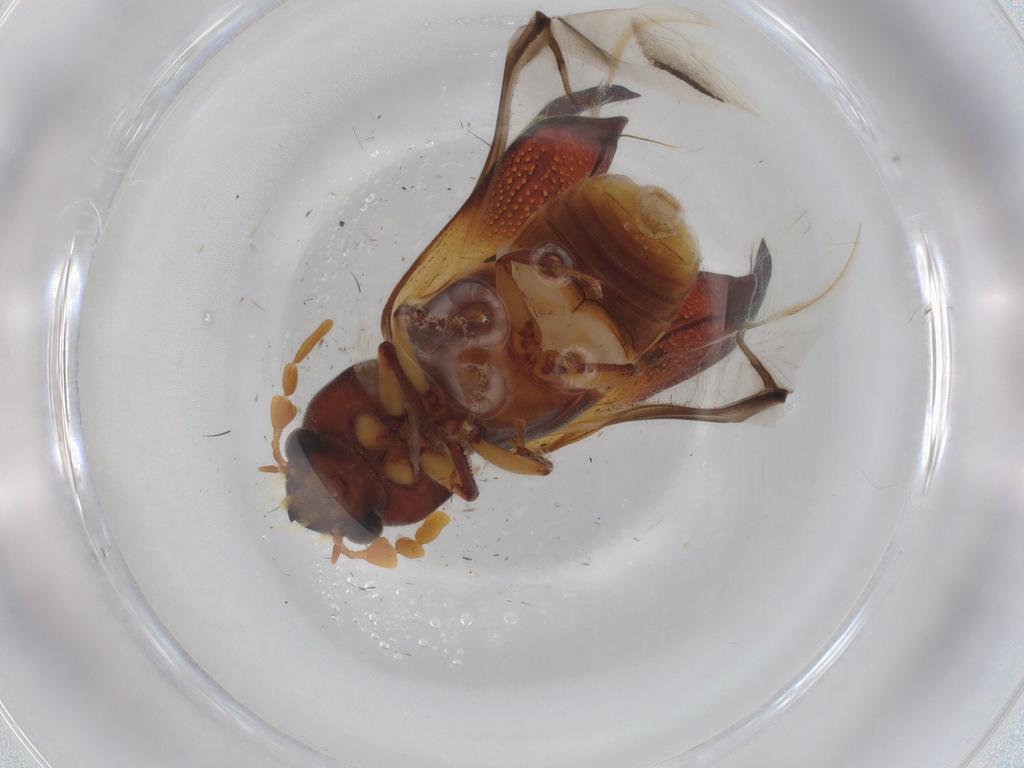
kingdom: Animalia
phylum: Arthropoda
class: Insecta
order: Coleoptera
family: Bostrichidae
